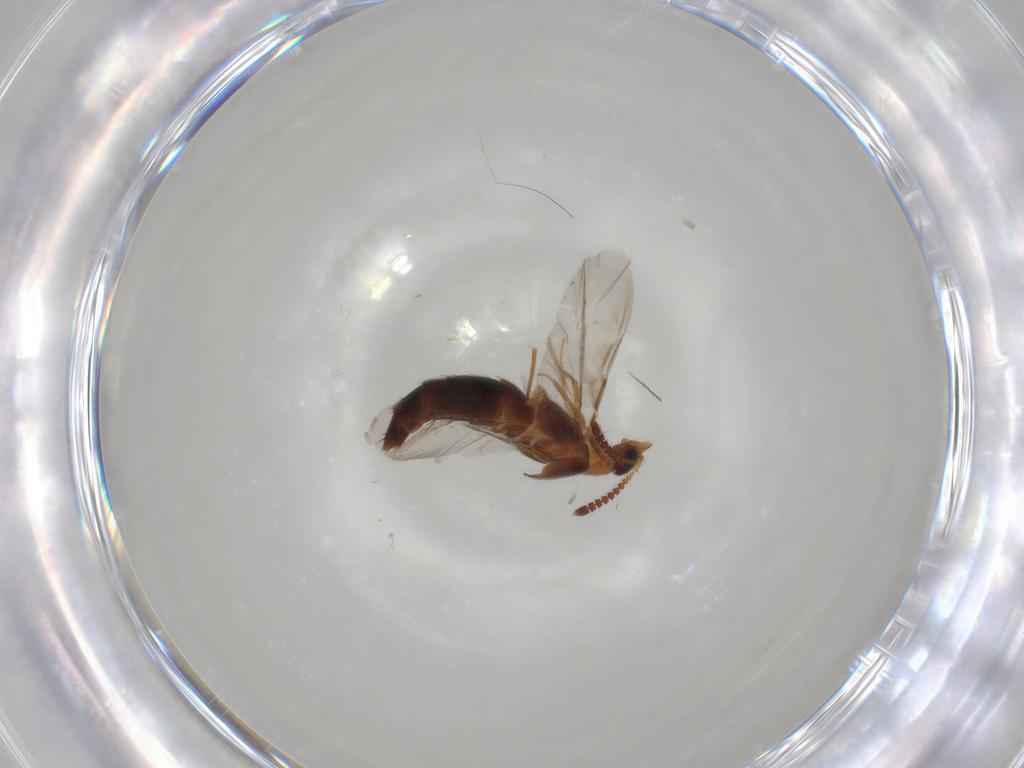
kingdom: Animalia
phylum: Arthropoda
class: Insecta
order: Coleoptera
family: Staphylinidae
